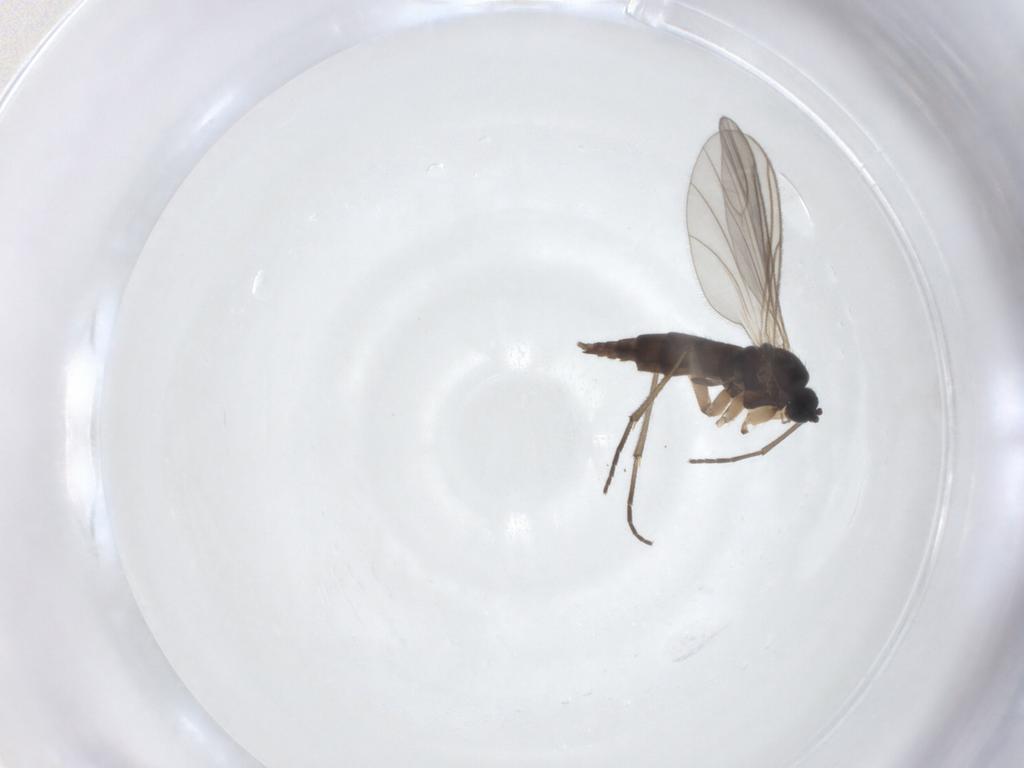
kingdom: Animalia
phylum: Arthropoda
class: Insecta
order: Diptera
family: Sciaridae
